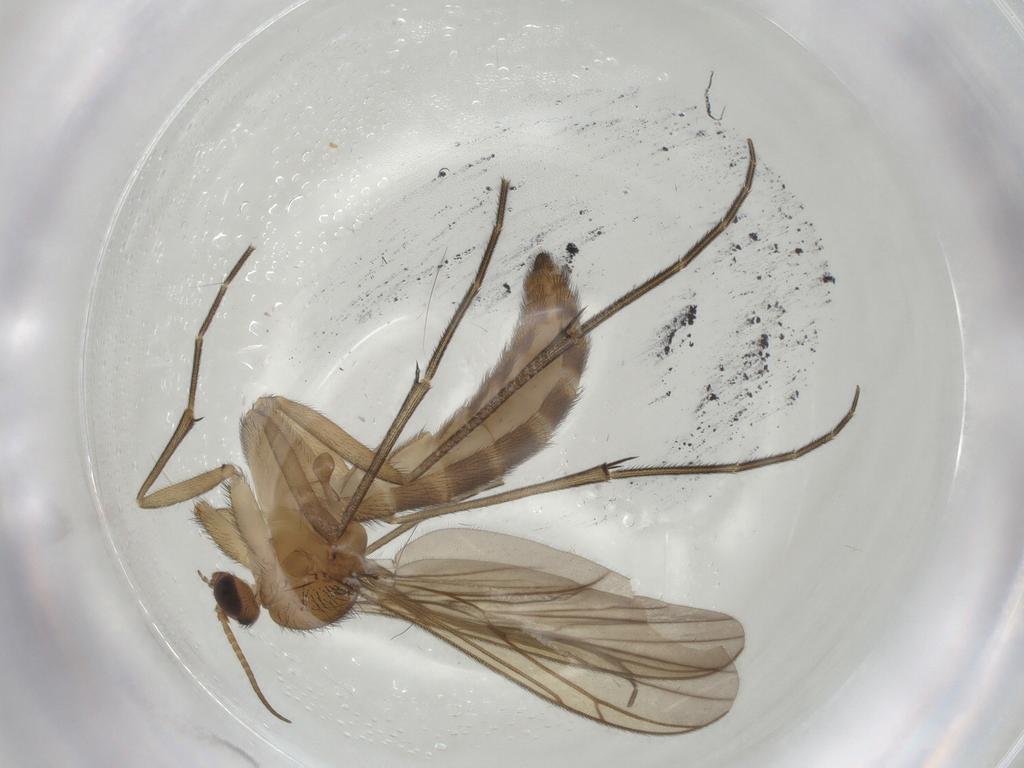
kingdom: Animalia
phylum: Arthropoda
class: Insecta
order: Diptera
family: Keroplatidae
